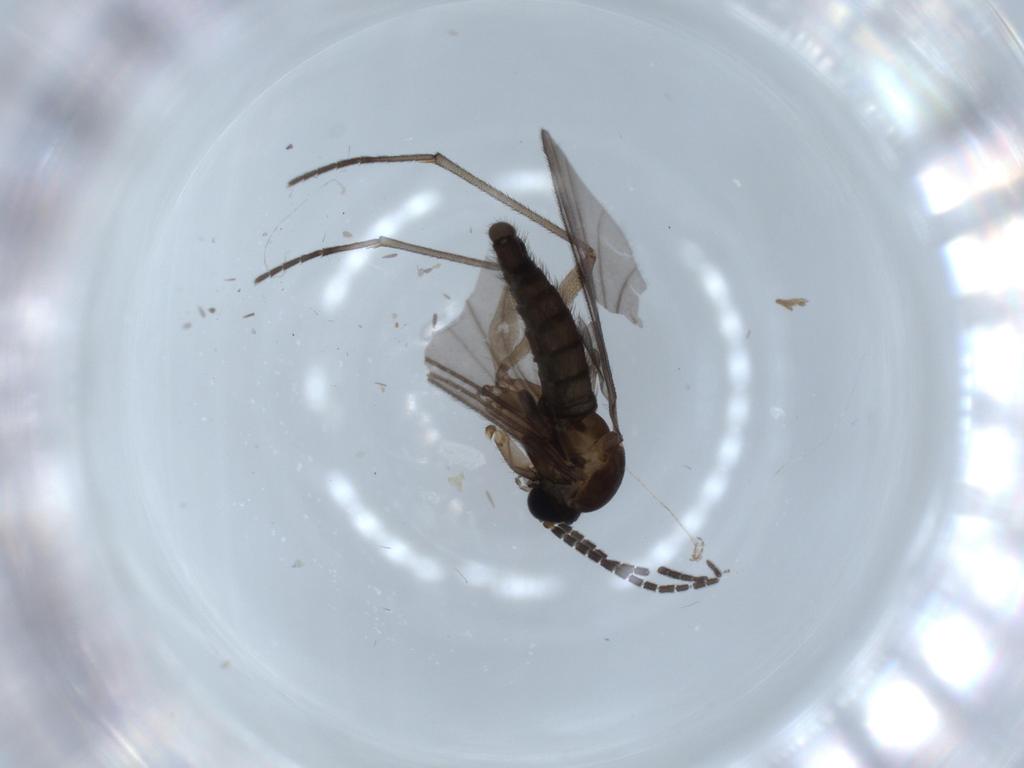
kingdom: Animalia
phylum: Arthropoda
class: Insecta
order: Diptera
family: Sciaridae
